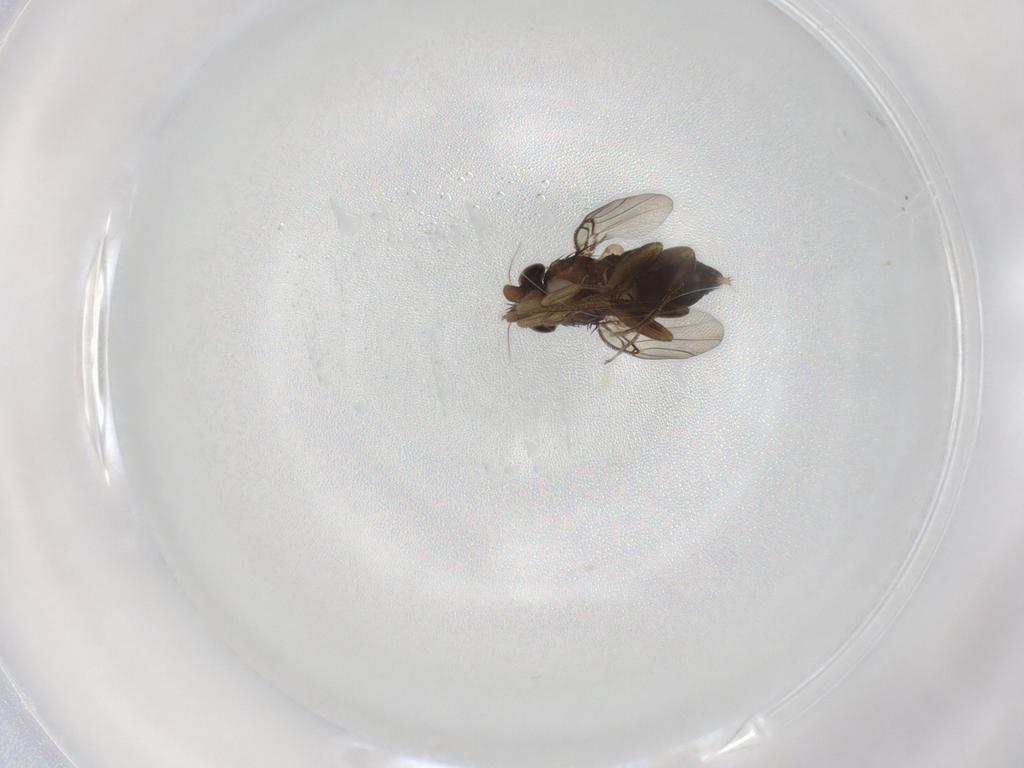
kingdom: Animalia
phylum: Arthropoda
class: Insecta
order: Diptera
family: Phoridae
